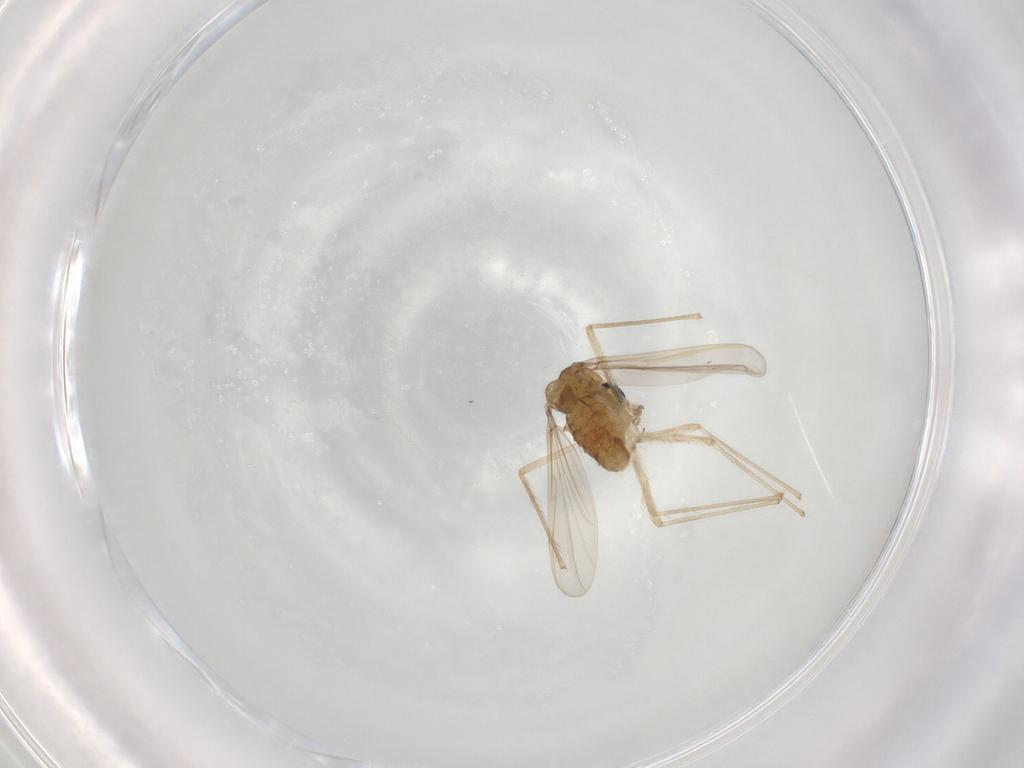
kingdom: Animalia
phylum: Arthropoda
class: Insecta
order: Diptera
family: Chironomidae
